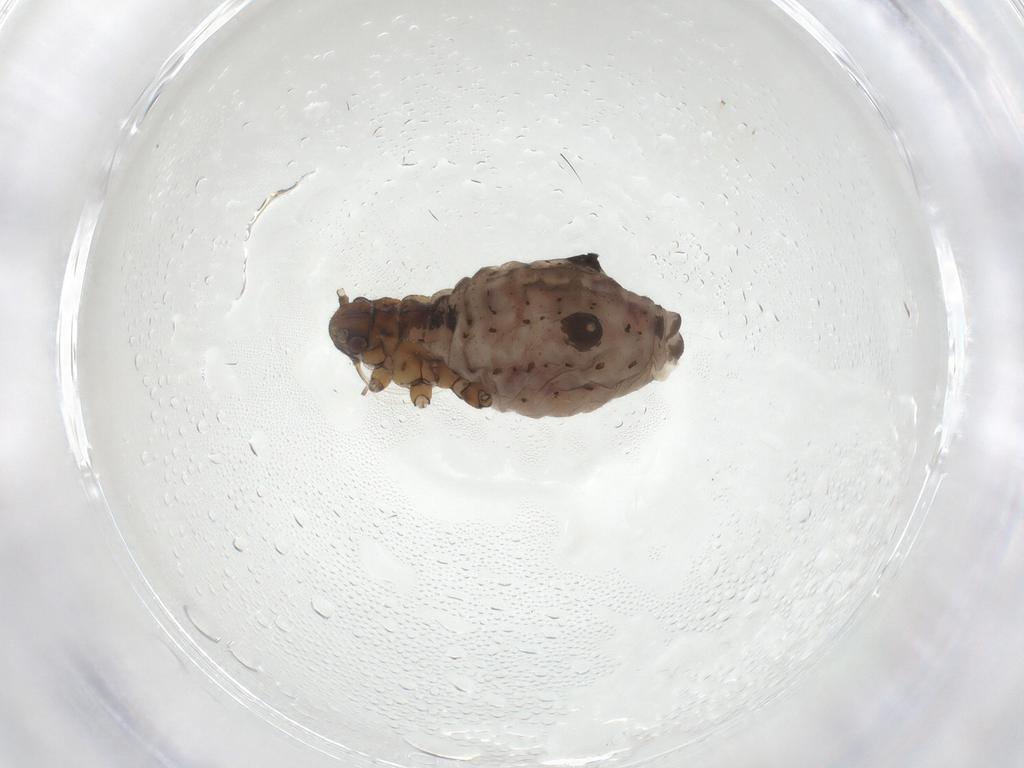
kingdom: Animalia
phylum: Arthropoda
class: Insecta
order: Hemiptera
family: Aphididae
